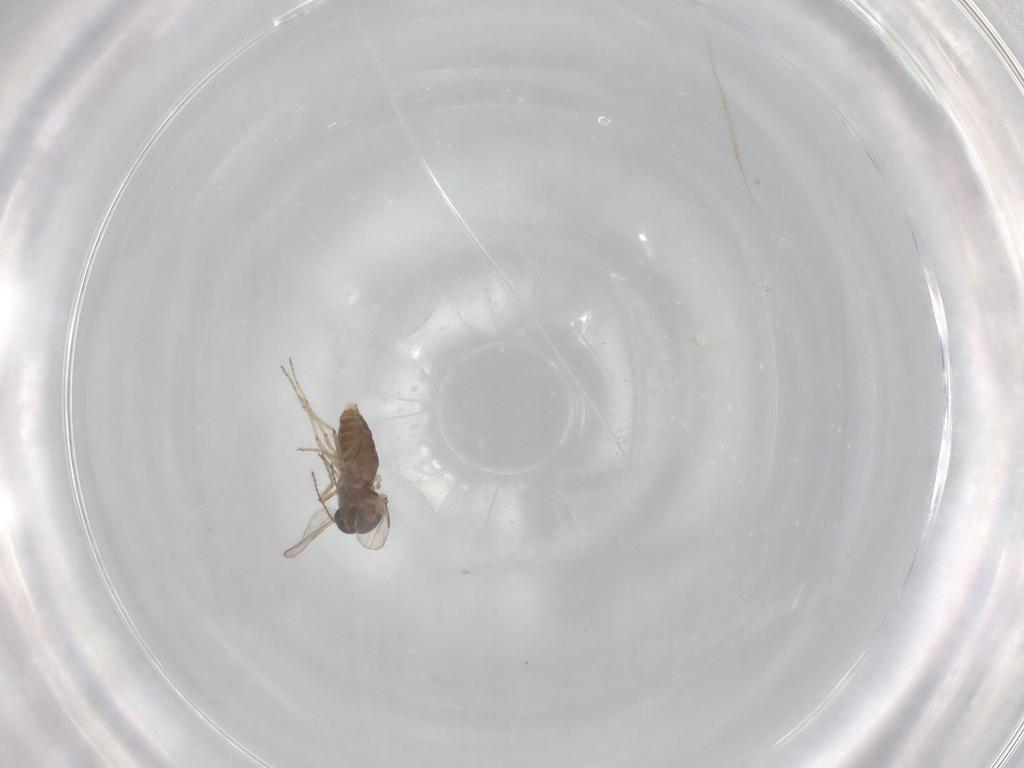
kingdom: Animalia
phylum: Arthropoda
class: Insecta
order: Diptera
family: Ceratopogonidae
